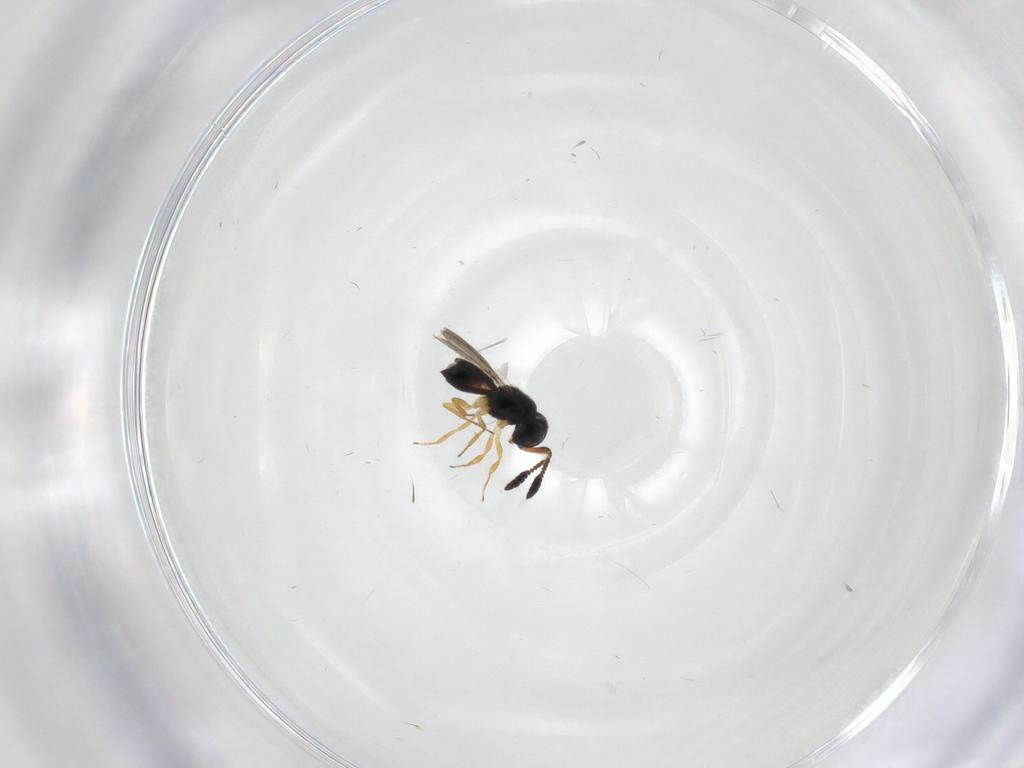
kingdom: Animalia
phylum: Arthropoda
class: Insecta
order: Hymenoptera
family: Scelionidae
